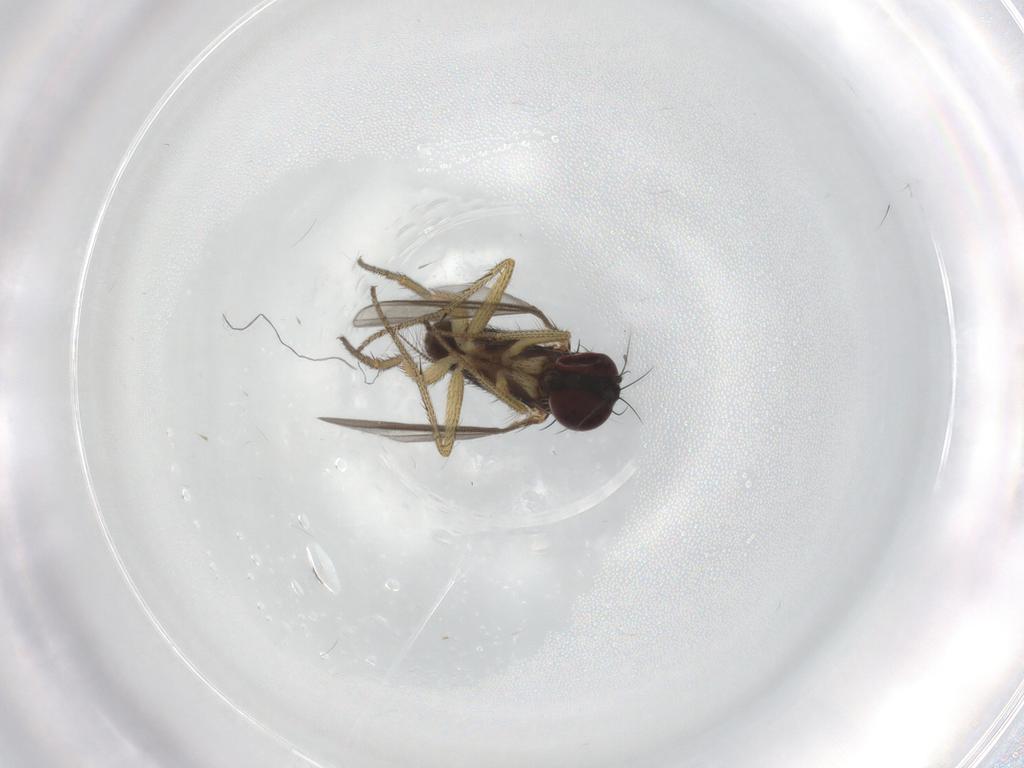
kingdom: Animalia
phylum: Arthropoda
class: Insecta
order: Diptera
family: Chironomidae
